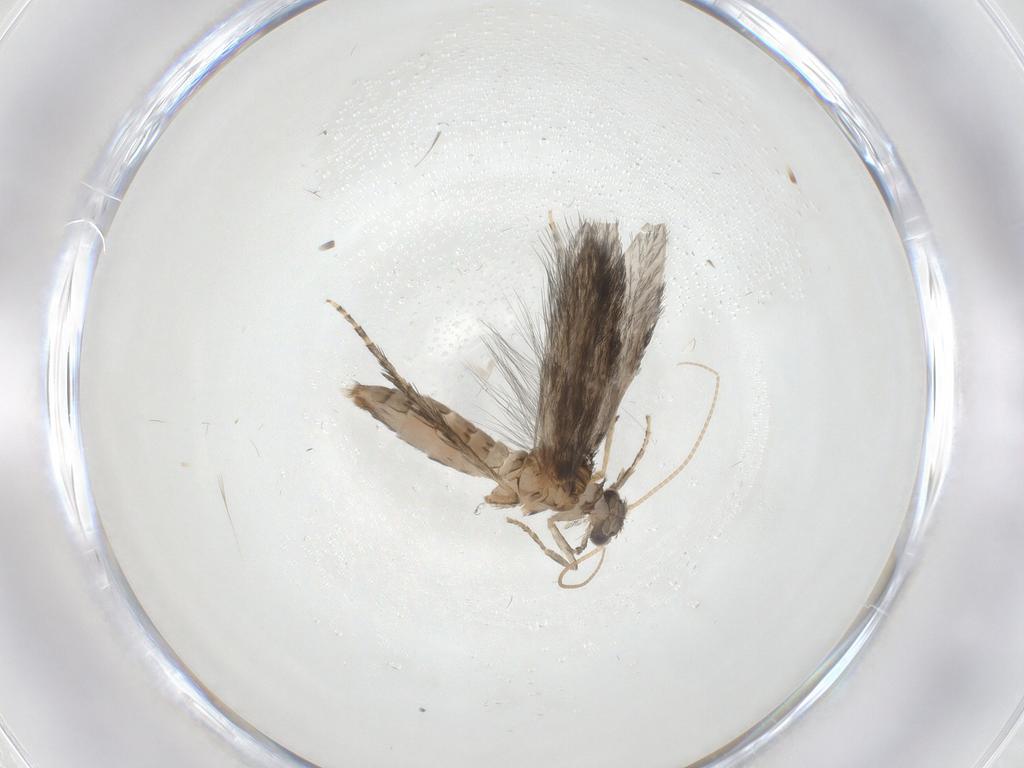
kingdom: Animalia
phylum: Arthropoda
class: Insecta
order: Trichoptera
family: Hydroptilidae
